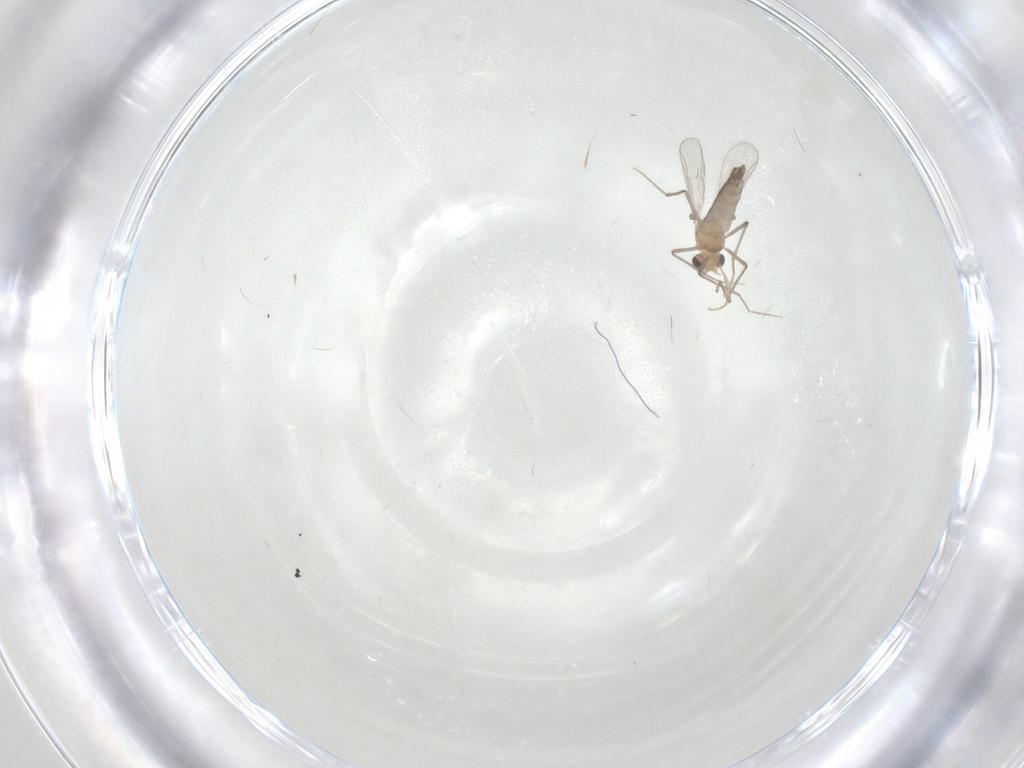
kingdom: Animalia
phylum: Arthropoda
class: Insecta
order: Diptera
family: Chironomidae
